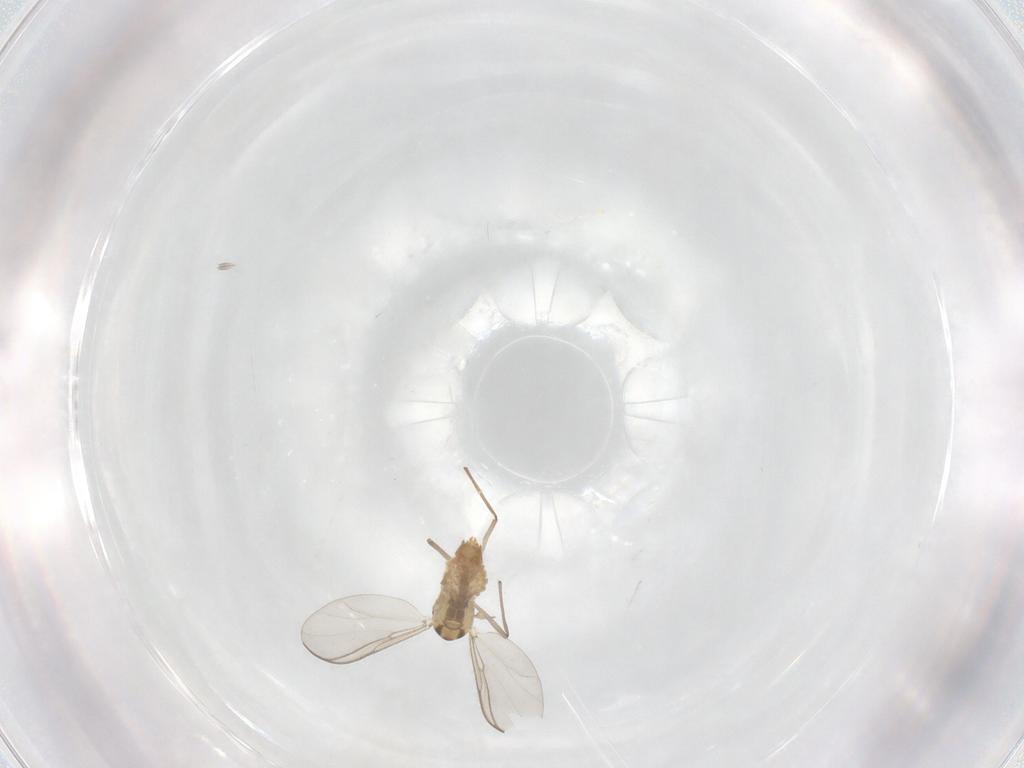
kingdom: Animalia
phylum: Arthropoda
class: Insecta
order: Diptera
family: Chironomidae
